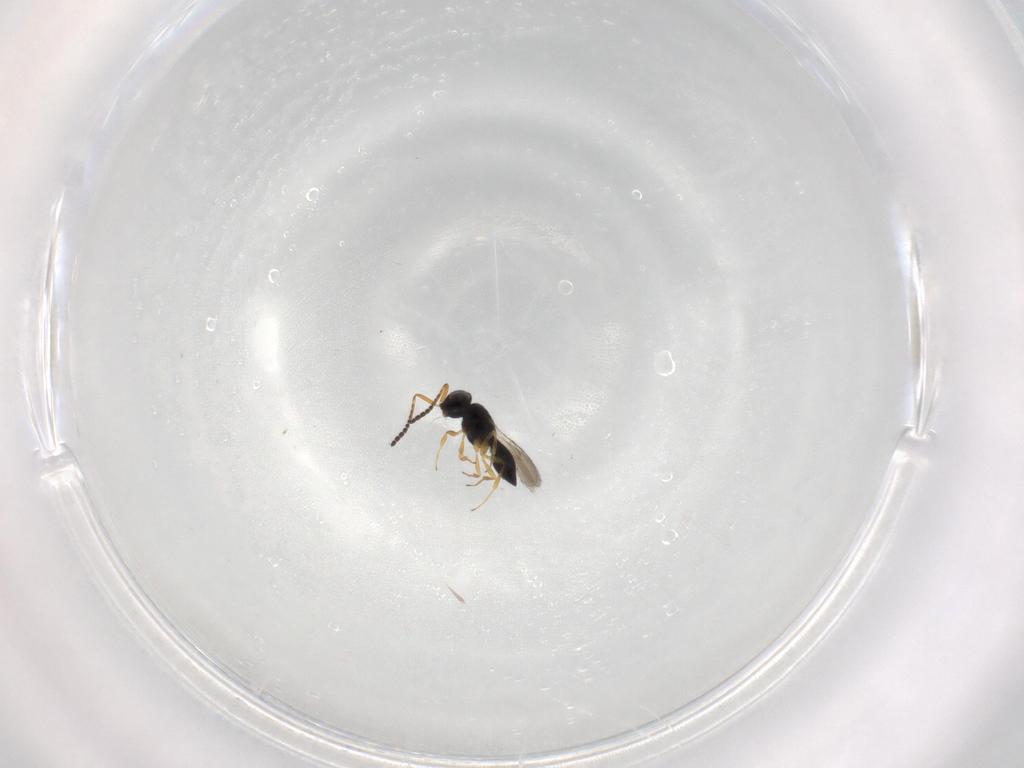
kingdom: Animalia
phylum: Arthropoda
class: Insecta
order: Hymenoptera
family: Scelionidae
